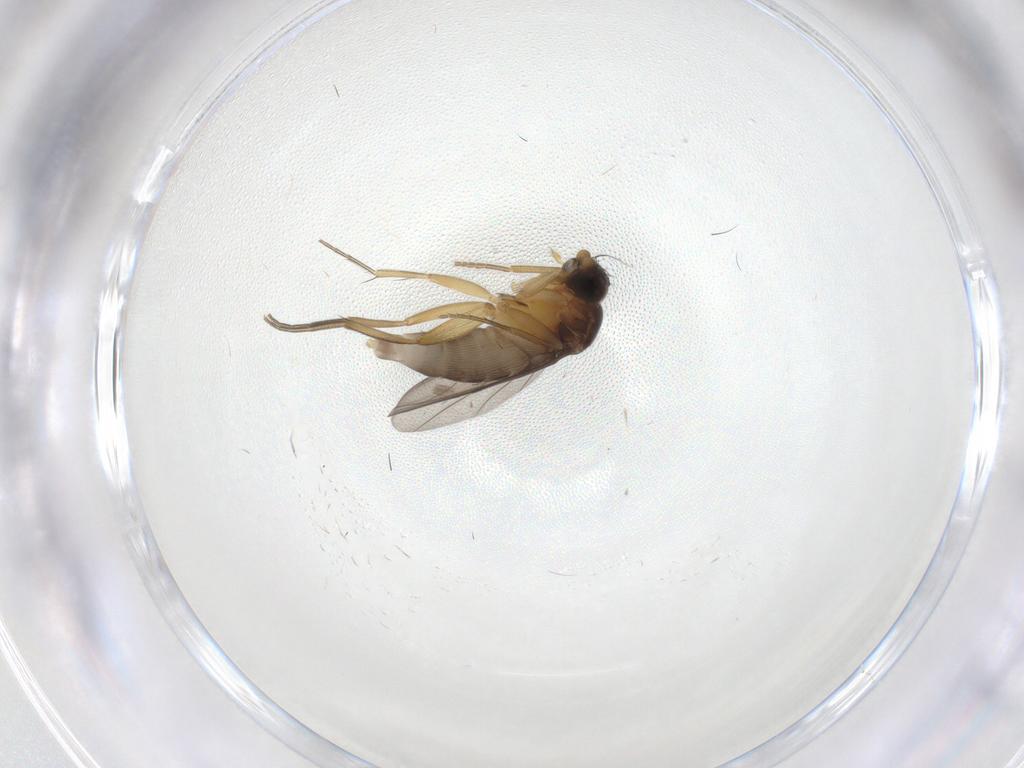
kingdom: Animalia
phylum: Arthropoda
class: Insecta
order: Diptera
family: Phoridae
